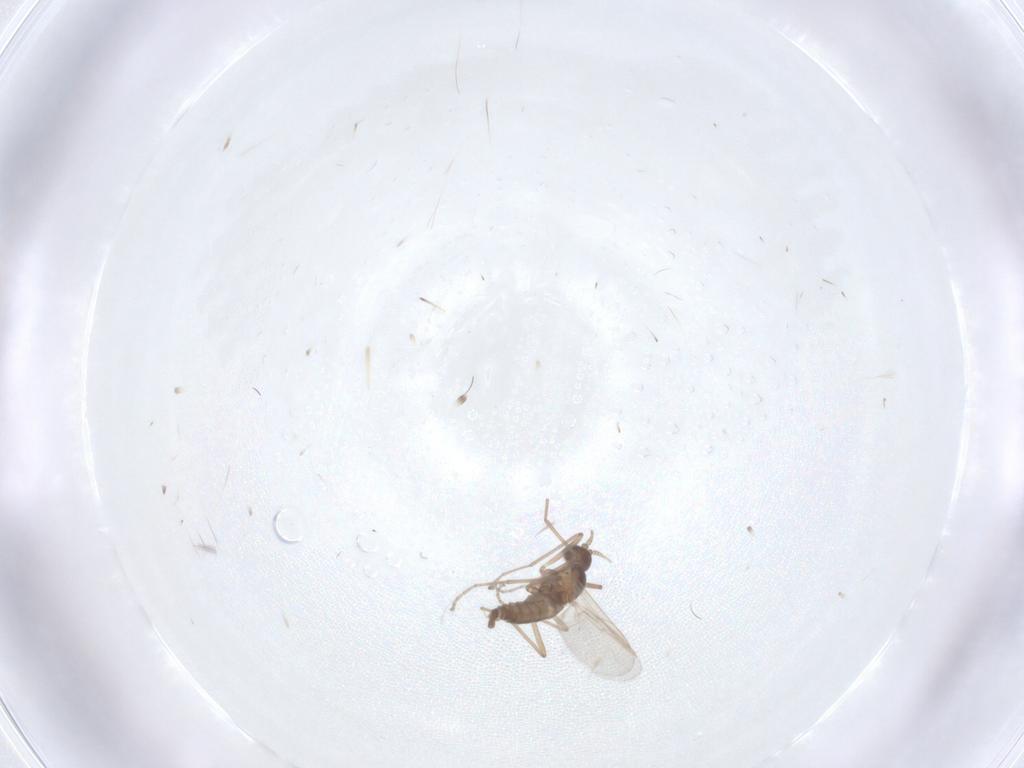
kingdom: Animalia
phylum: Arthropoda
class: Insecta
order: Diptera
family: Cecidomyiidae
